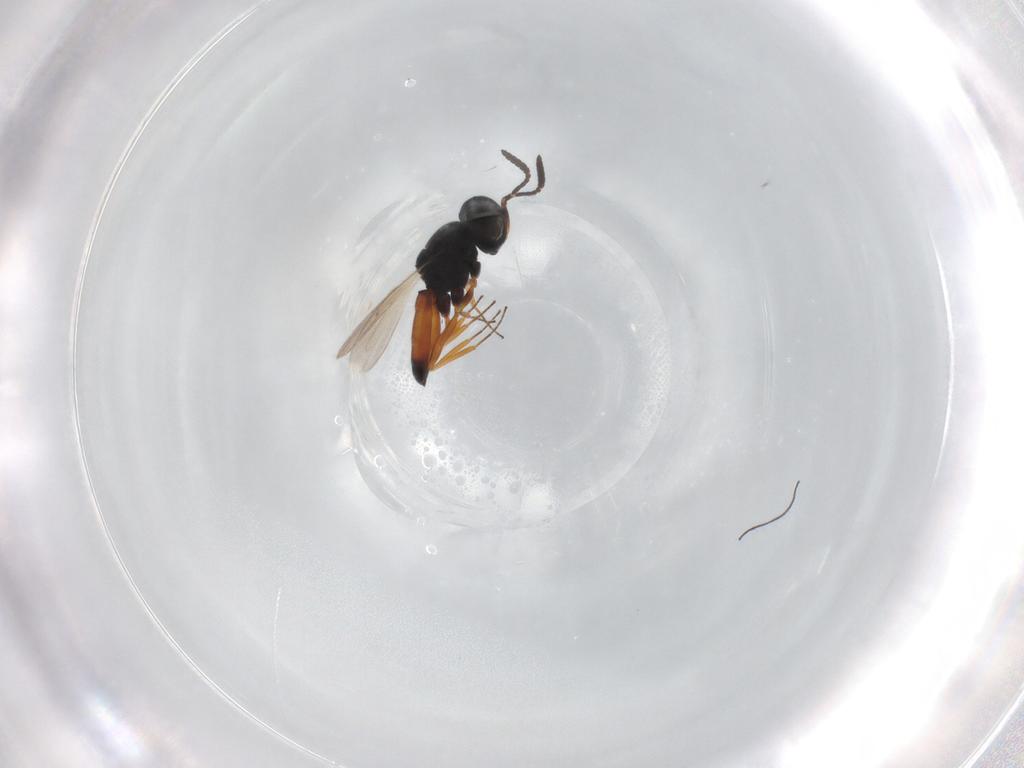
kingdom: Animalia
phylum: Arthropoda
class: Insecta
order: Hymenoptera
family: Scelionidae
